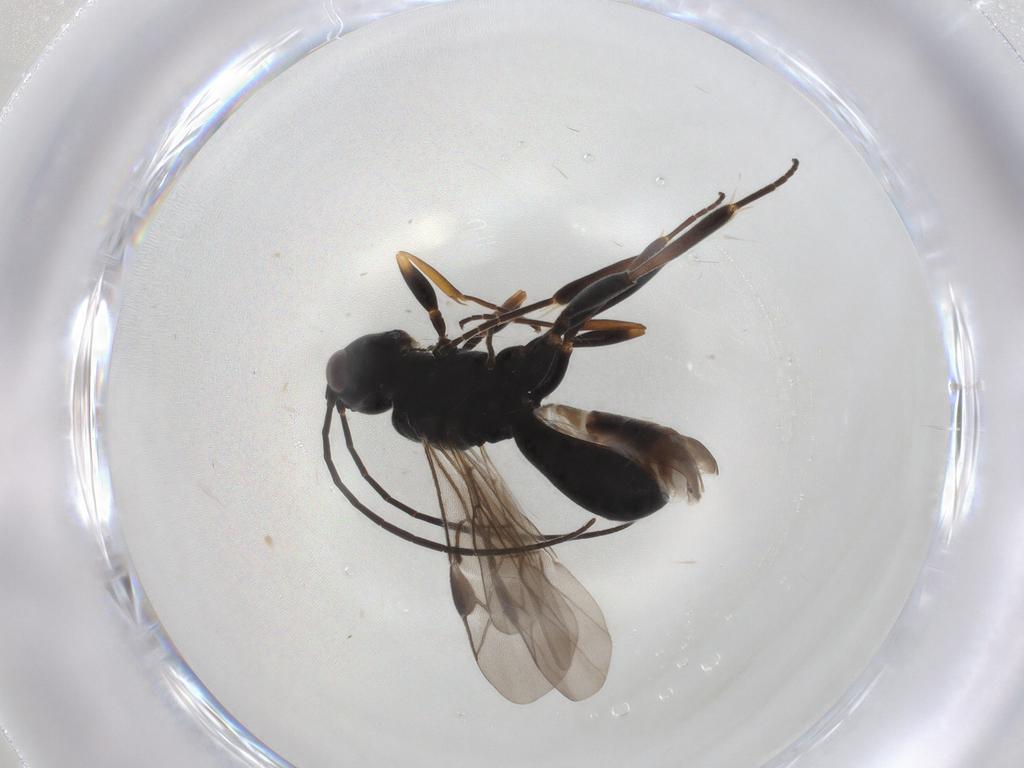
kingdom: Animalia
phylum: Arthropoda
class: Insecta
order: Hymenoptera
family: Braconidae
